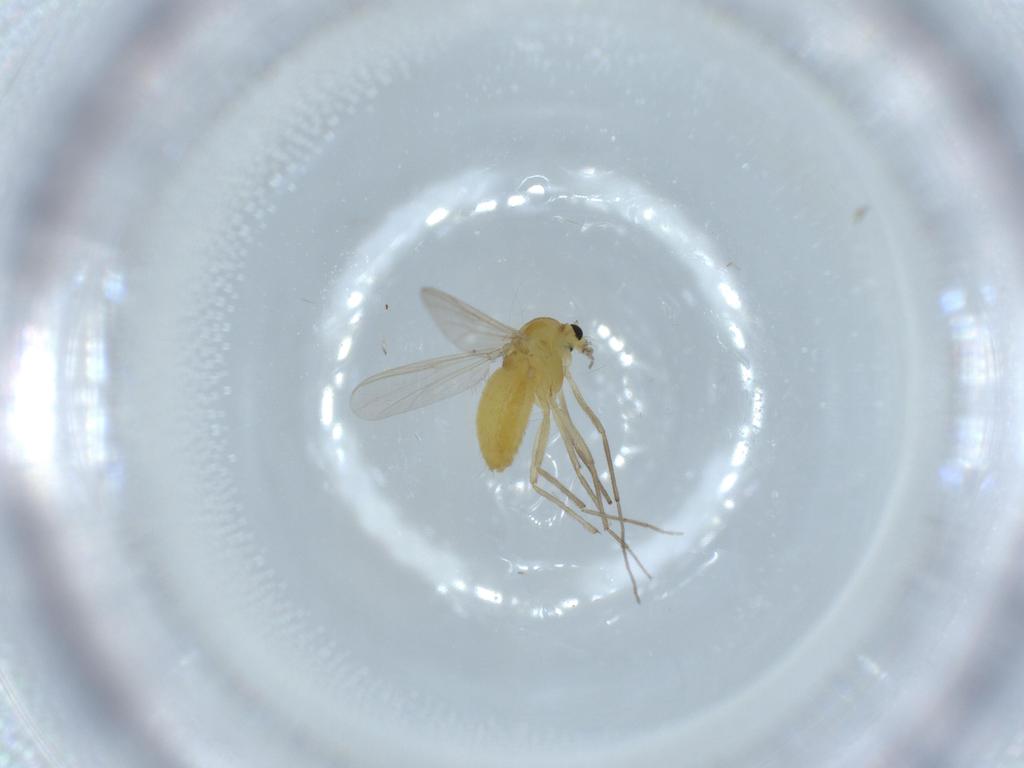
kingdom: Animalia
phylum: Arthropoda
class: Insecta
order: Diptera
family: Chironomidae
